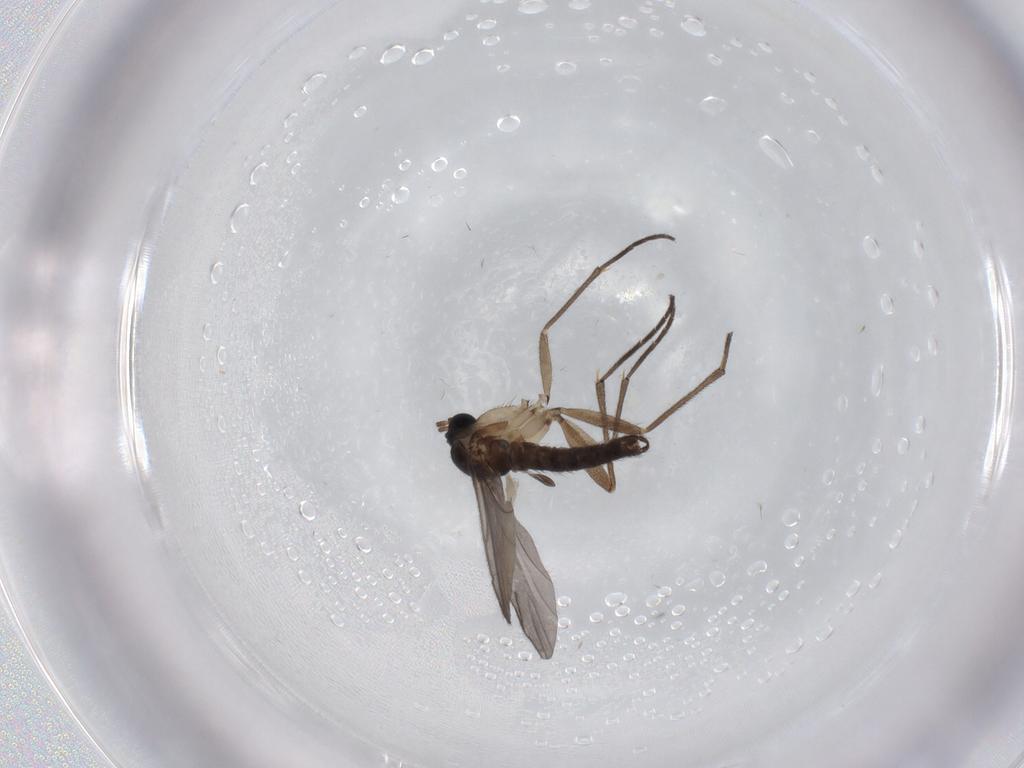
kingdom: Animalia
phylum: Arthropoda
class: Insecta
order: Diptera
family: Sciaridae
